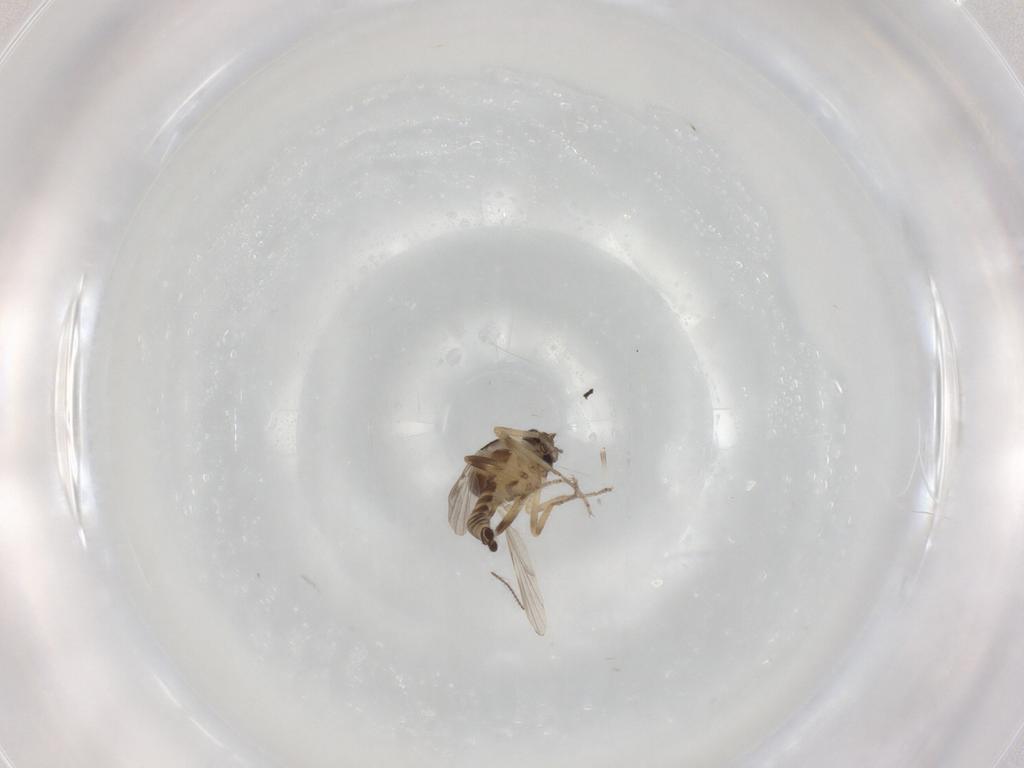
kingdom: Animalia
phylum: Arthropoda
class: Insecta
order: Diptera
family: Ceratopogonidae
